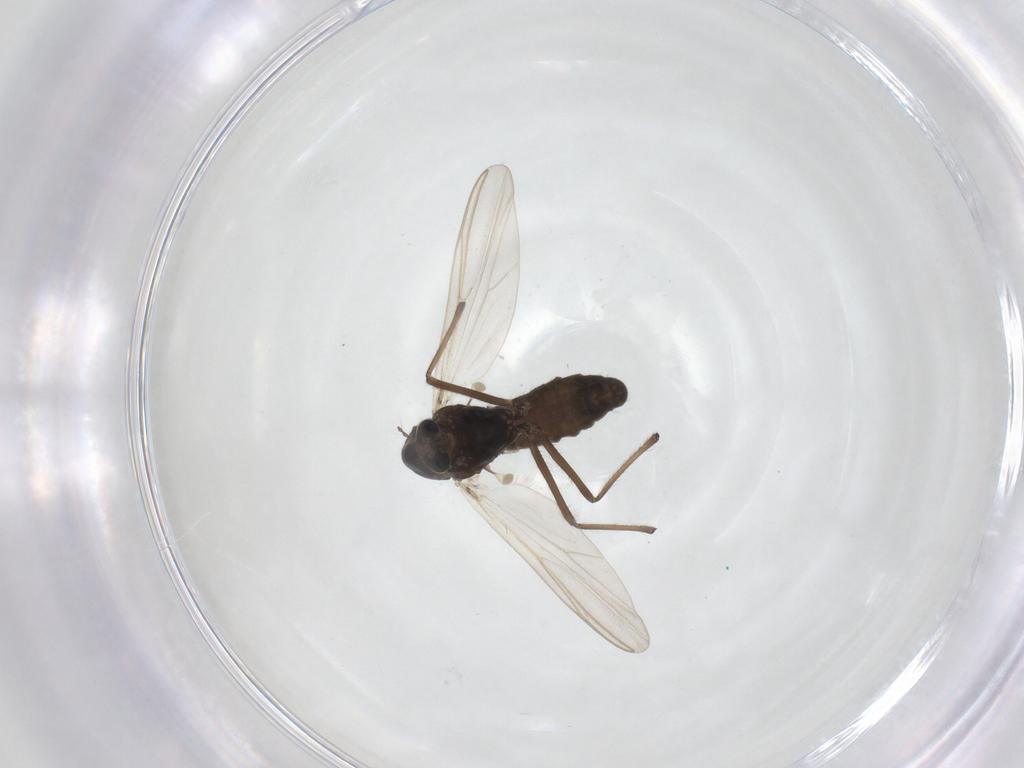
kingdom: Animalia
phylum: Arthropoda
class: Insecta
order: Diptera
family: Chironomidae
